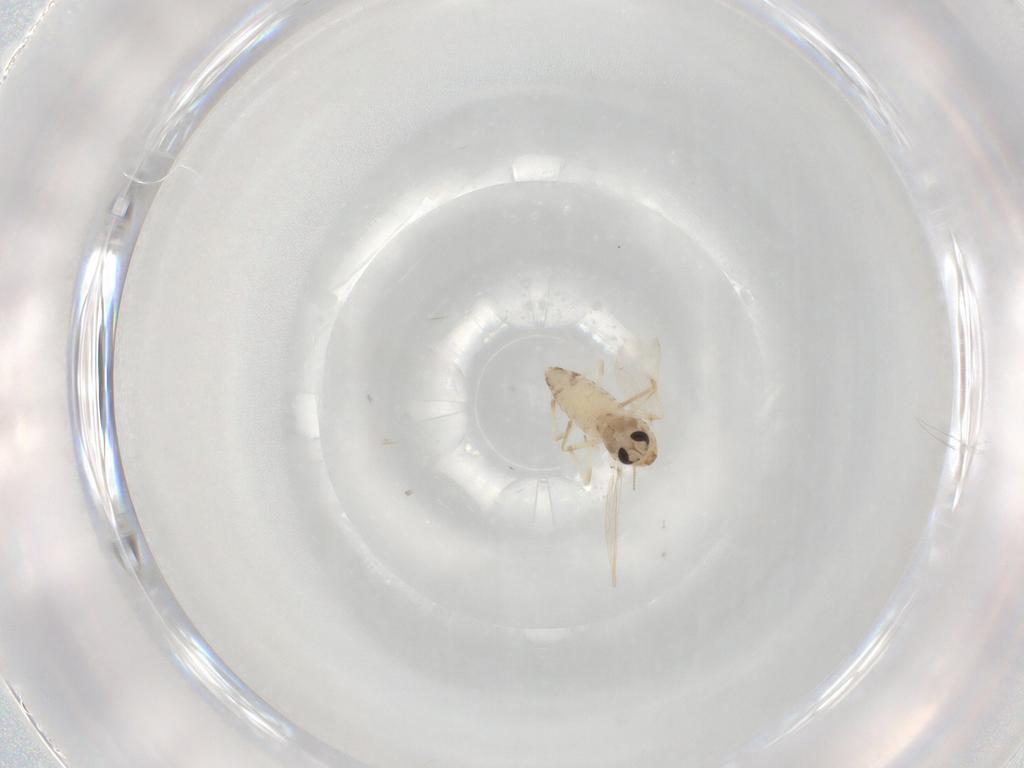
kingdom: Animalia
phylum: Arthropoda
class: Insecta
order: Diptera
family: Chironomidae
